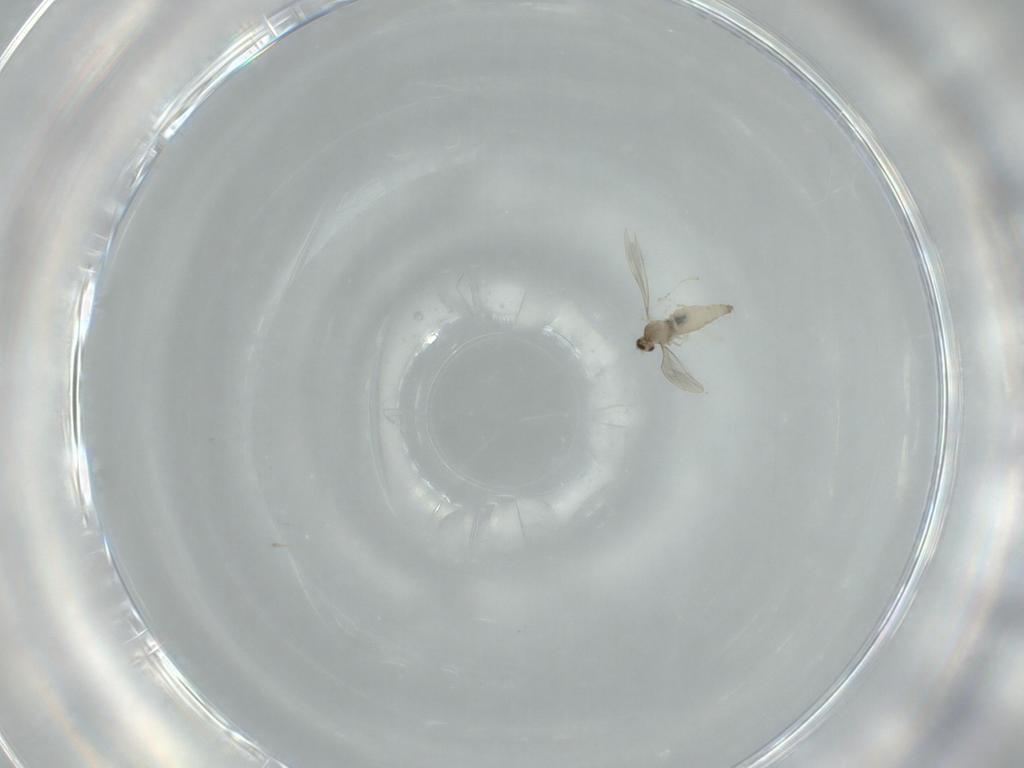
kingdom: Animalia
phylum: Arthropoda
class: Insecta
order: Diptera
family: Cecidomyiidae
